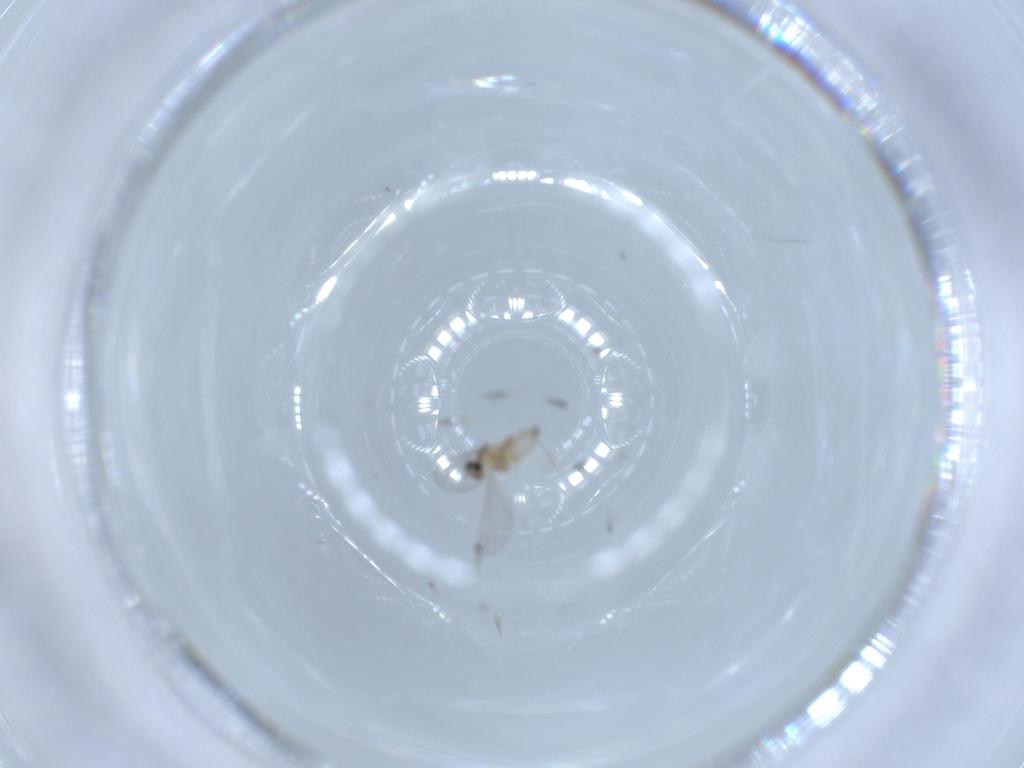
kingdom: Animalia
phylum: Arthropoda
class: Insecta
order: Diptera
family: Cecidomyiidae
